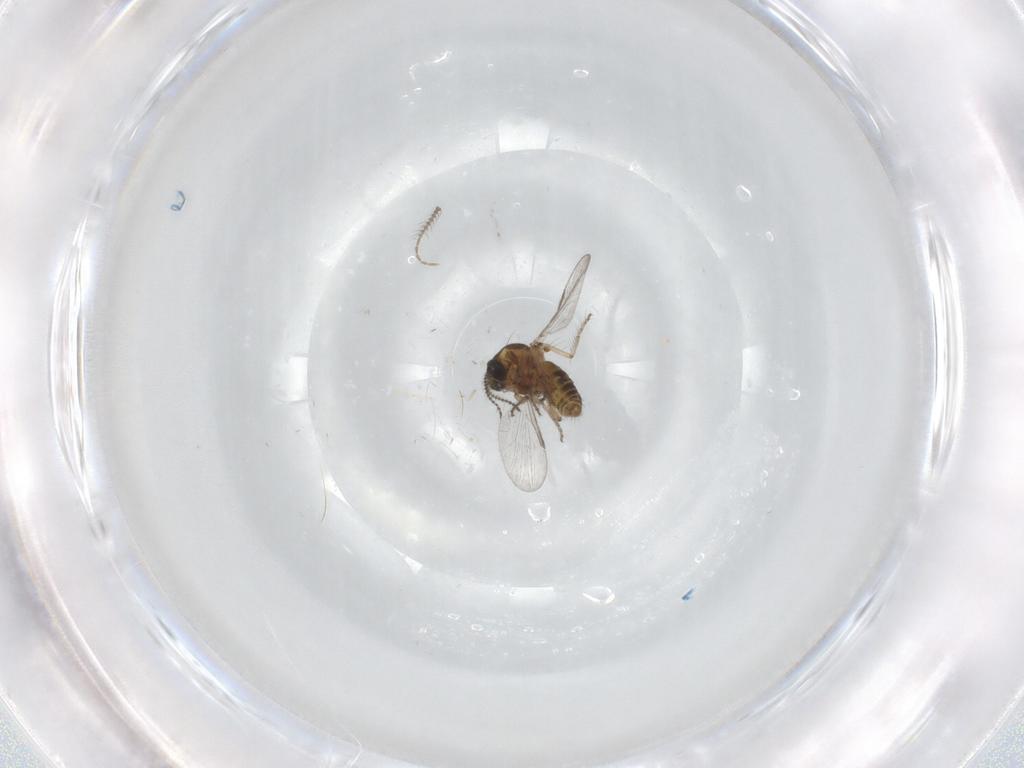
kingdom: Animalia
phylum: Arthropoda
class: Insecta
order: Diptera
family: Ceratopogonidae
